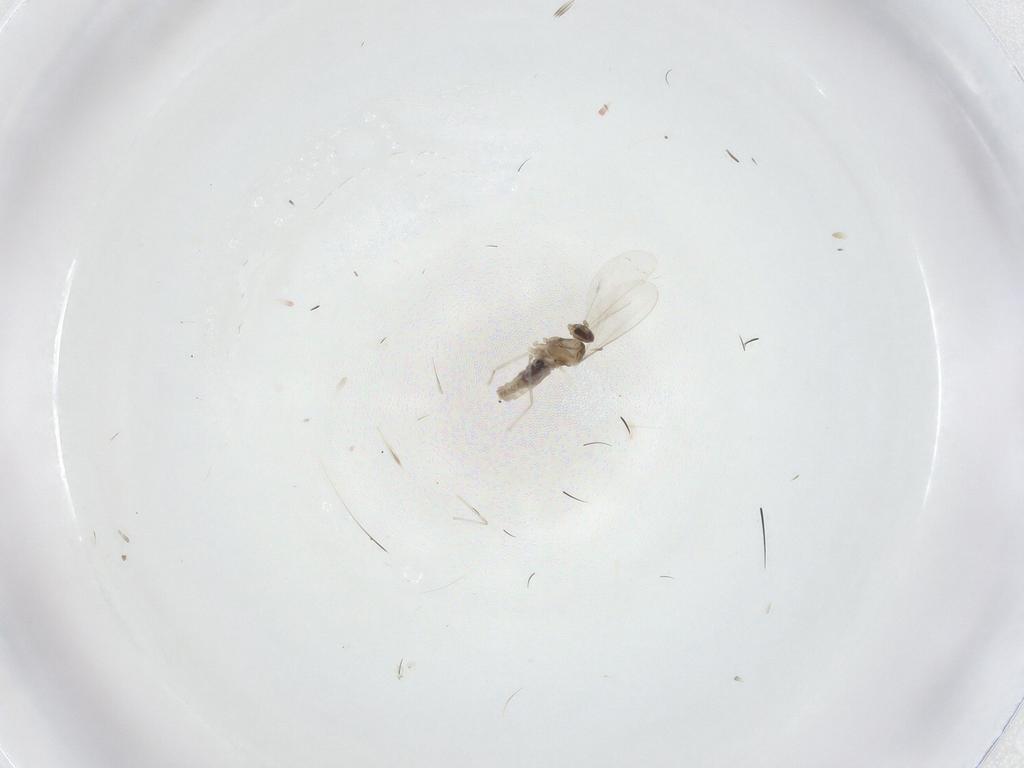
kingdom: Animalia
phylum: Arthropoda
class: Insecta
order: Diptera
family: Cecidomyiidae
